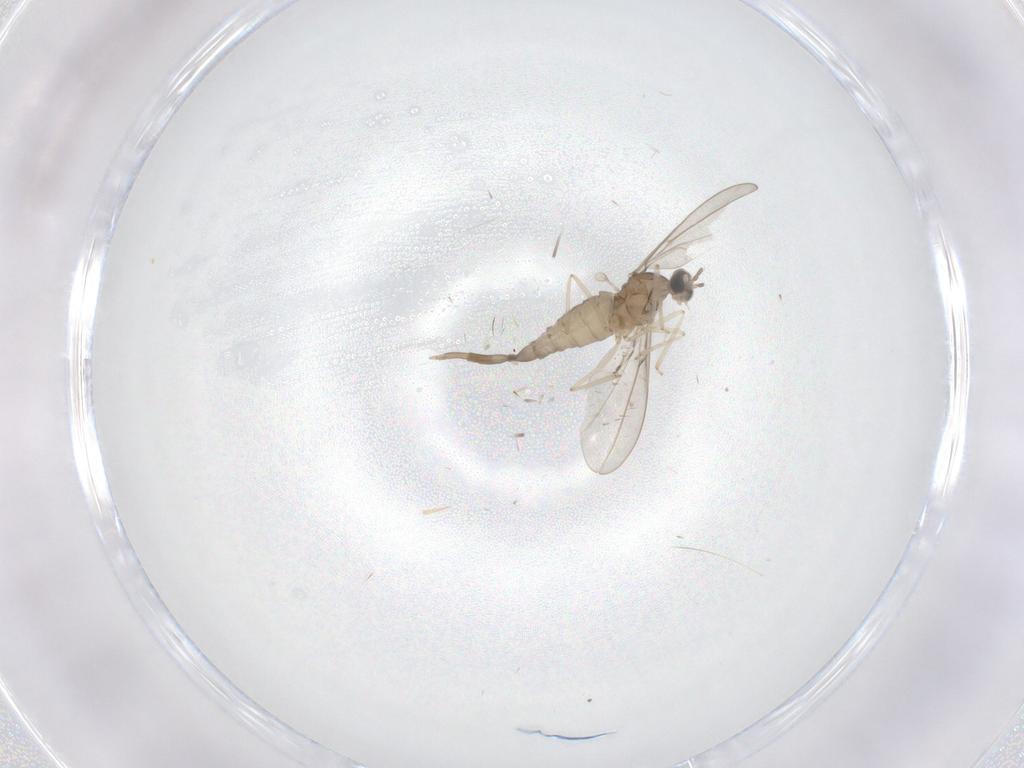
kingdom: Animalia
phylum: Arthropoda
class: Insecta
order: Diptera
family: Cecidomyiidae
